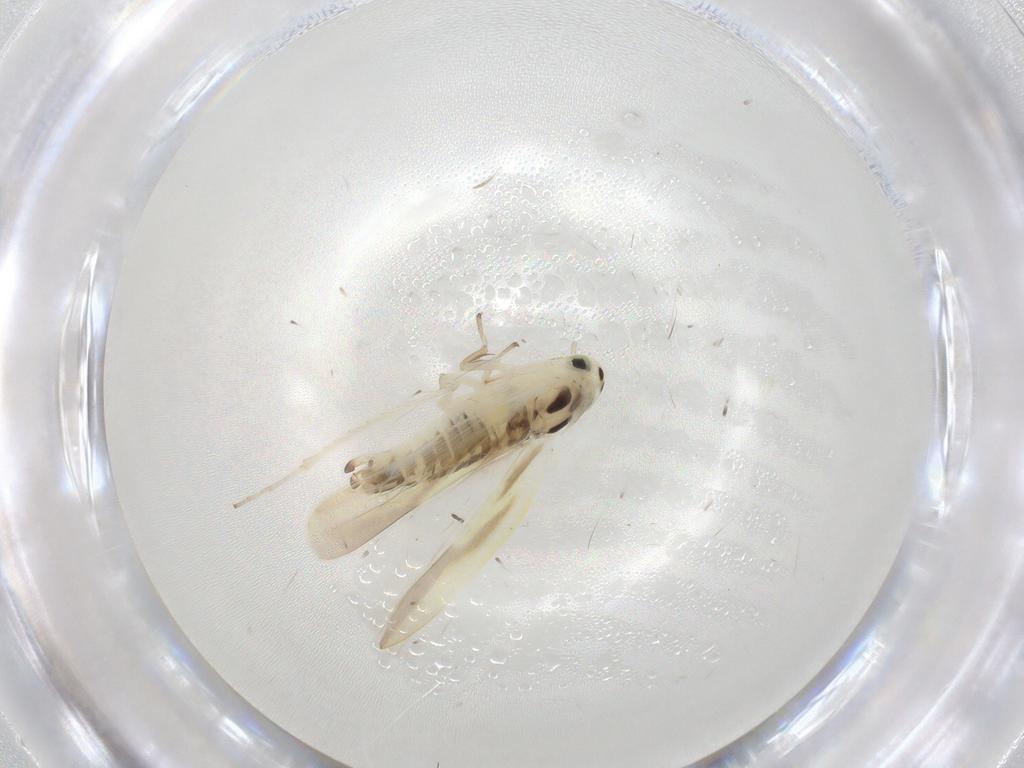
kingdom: Animalia
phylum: Arthropoda
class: Insecta
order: Hemiptera
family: Cicadellidae
